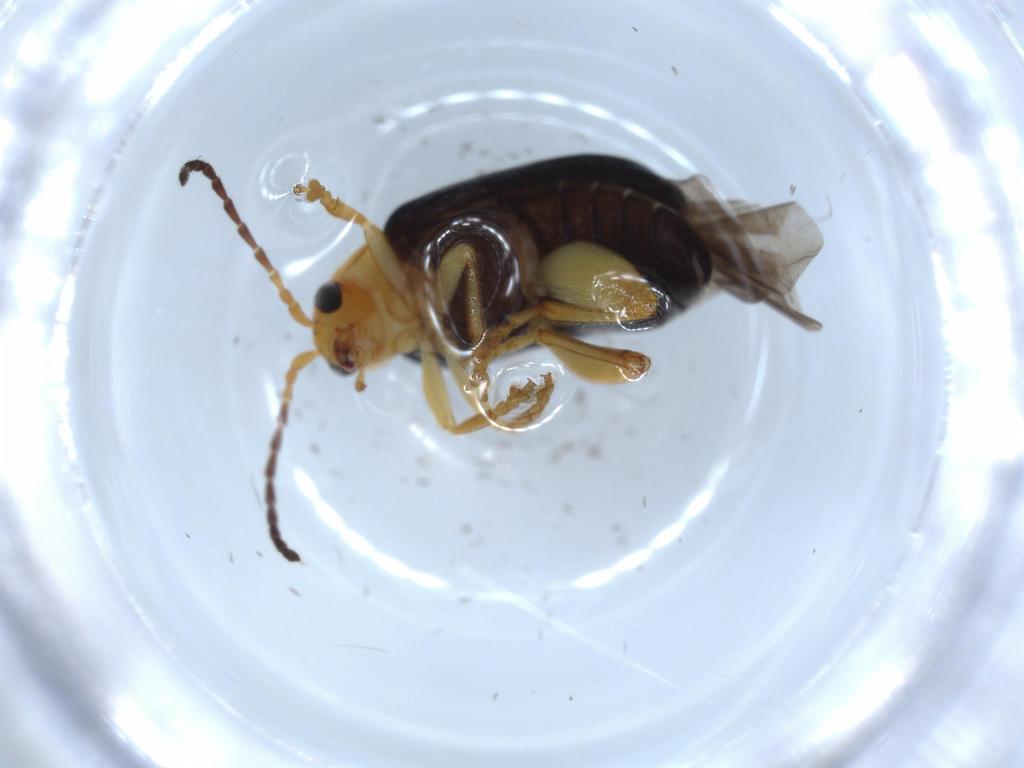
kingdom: Animalia
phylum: Arthropoda
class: Insecta
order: Coleoptera
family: Chrysomelidae
